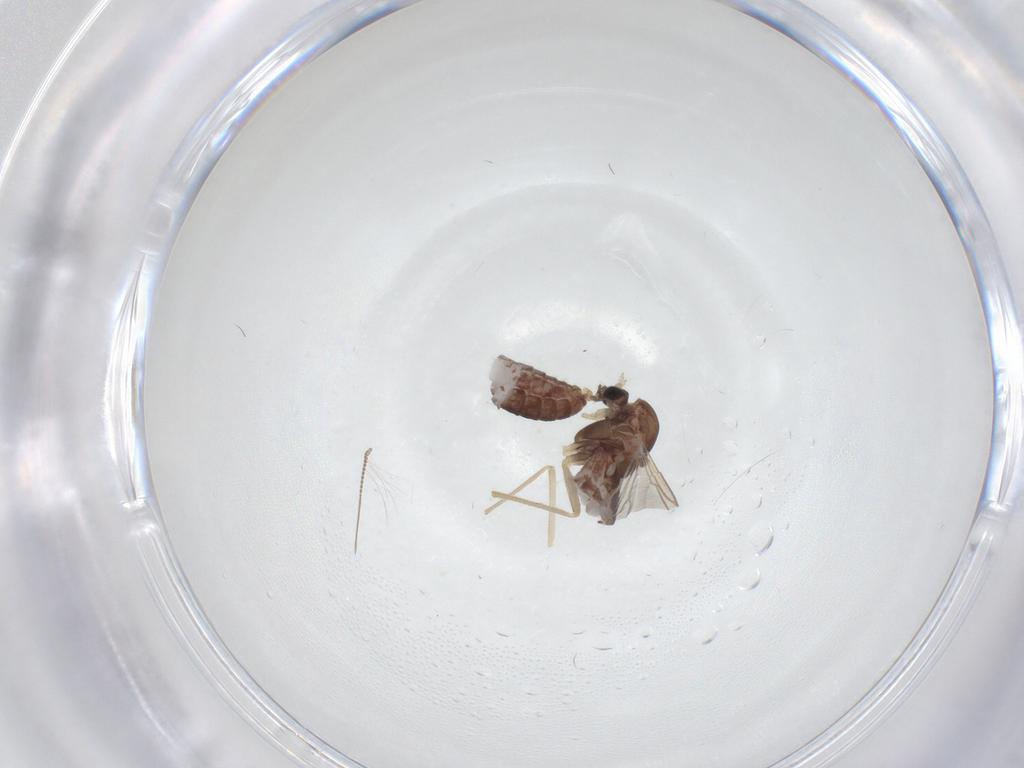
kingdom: Animalia
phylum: Arthropoda
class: Insecta
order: Diptera
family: Chironomidae
